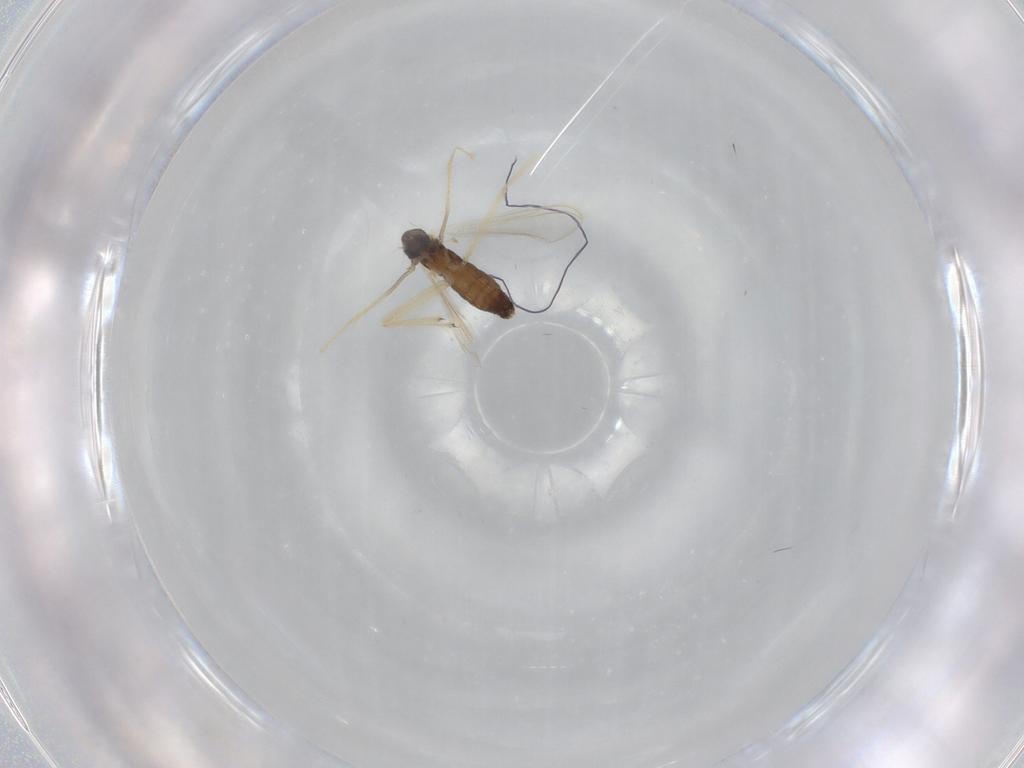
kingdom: Animalia
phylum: Arthropoda
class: Insecta
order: Diptera
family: Chironomidae
